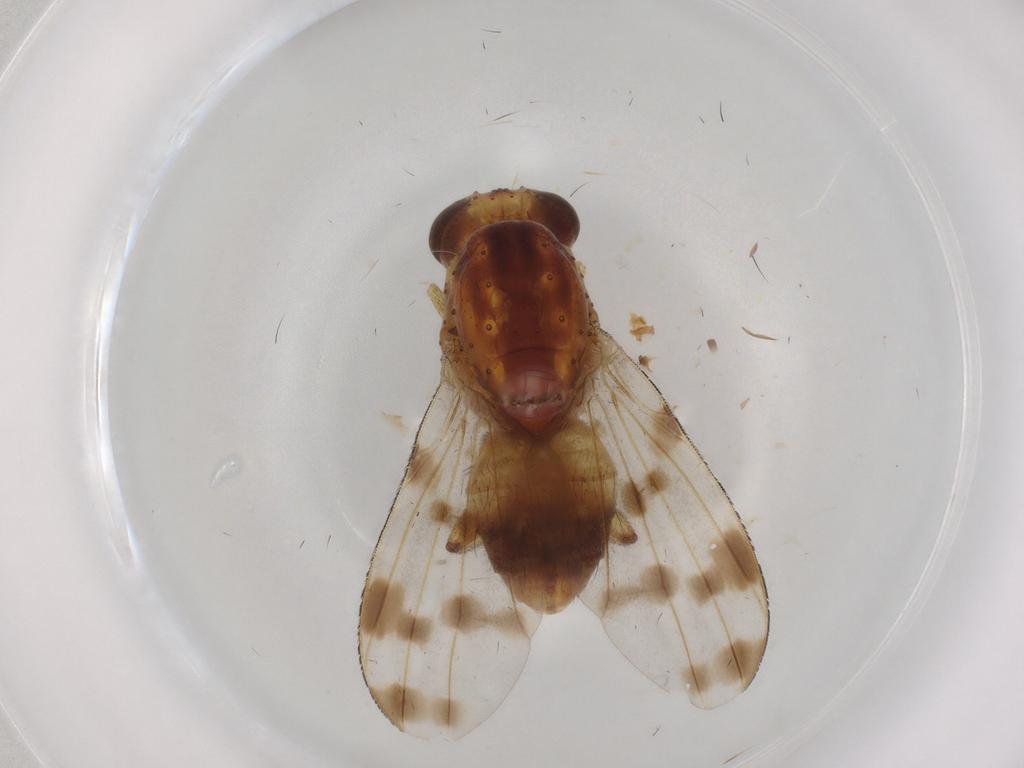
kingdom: Animalia
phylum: Arthropoda
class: Insecta
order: Diptera
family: Lauxaniidae
